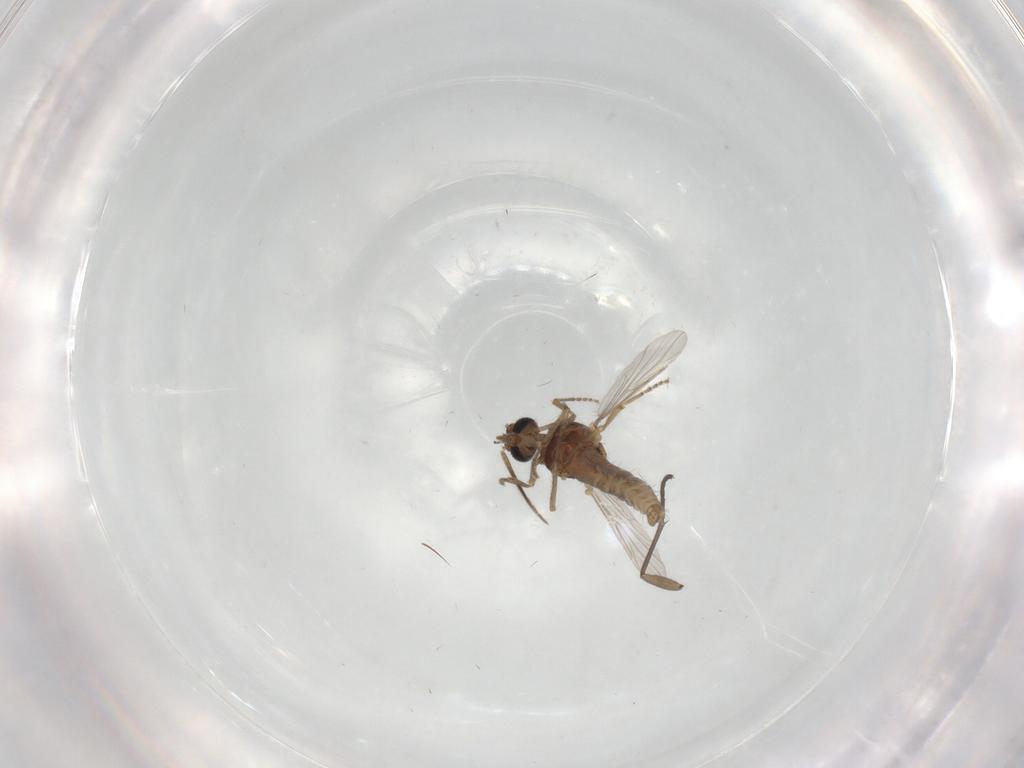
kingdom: Animalia
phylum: Arthropoda
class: Insecta
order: Diptera
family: Ceratopogonidae
